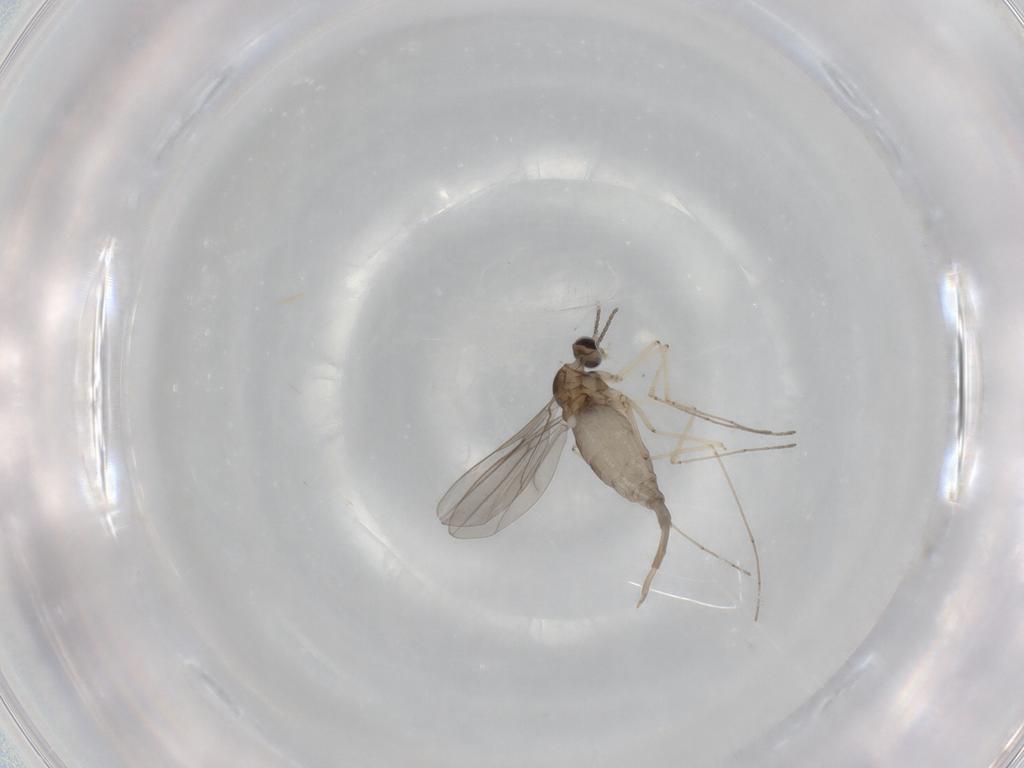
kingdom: Animalia
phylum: Arthropoda
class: Insecta
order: Diptera
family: Cecidomyiidae
